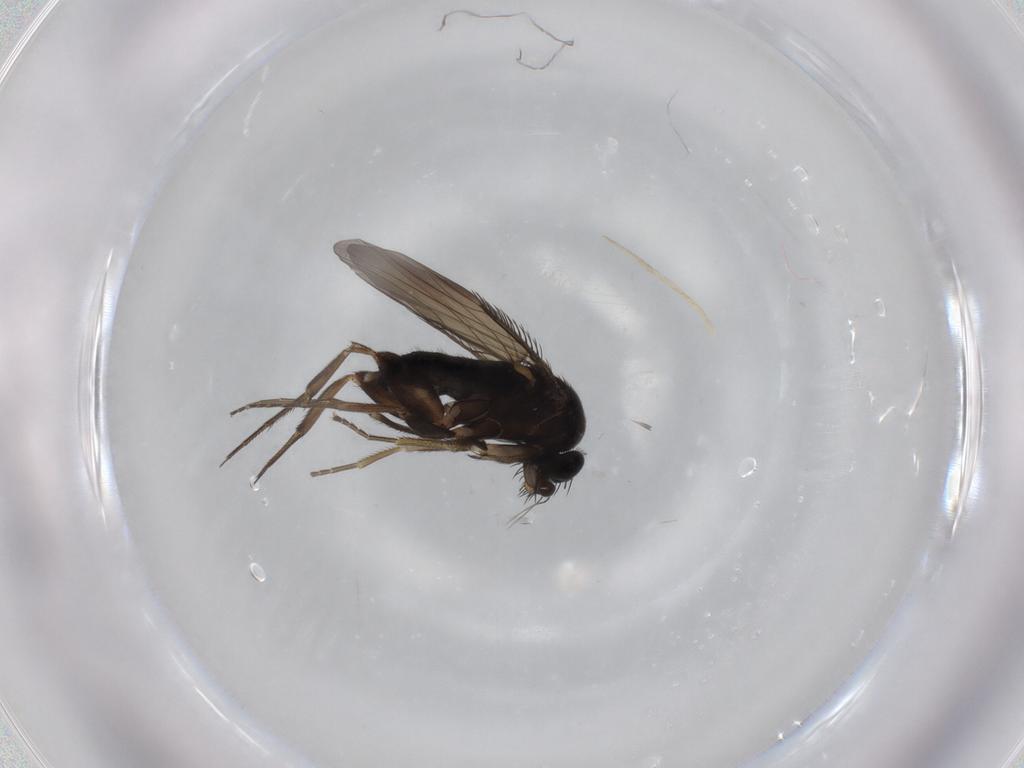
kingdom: Animalia
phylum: Arthropoda
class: Insecta
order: Diptera
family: Phoridae
